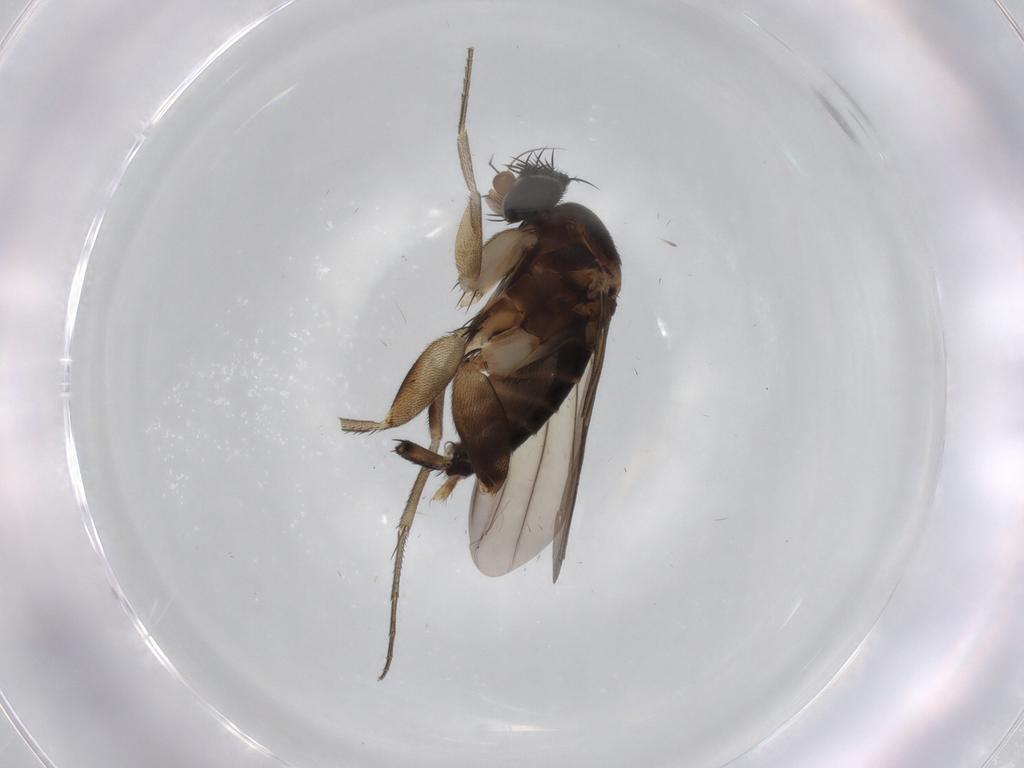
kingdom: Animalia
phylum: Arthropoda
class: Insecta
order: Diptera
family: Phoridae
